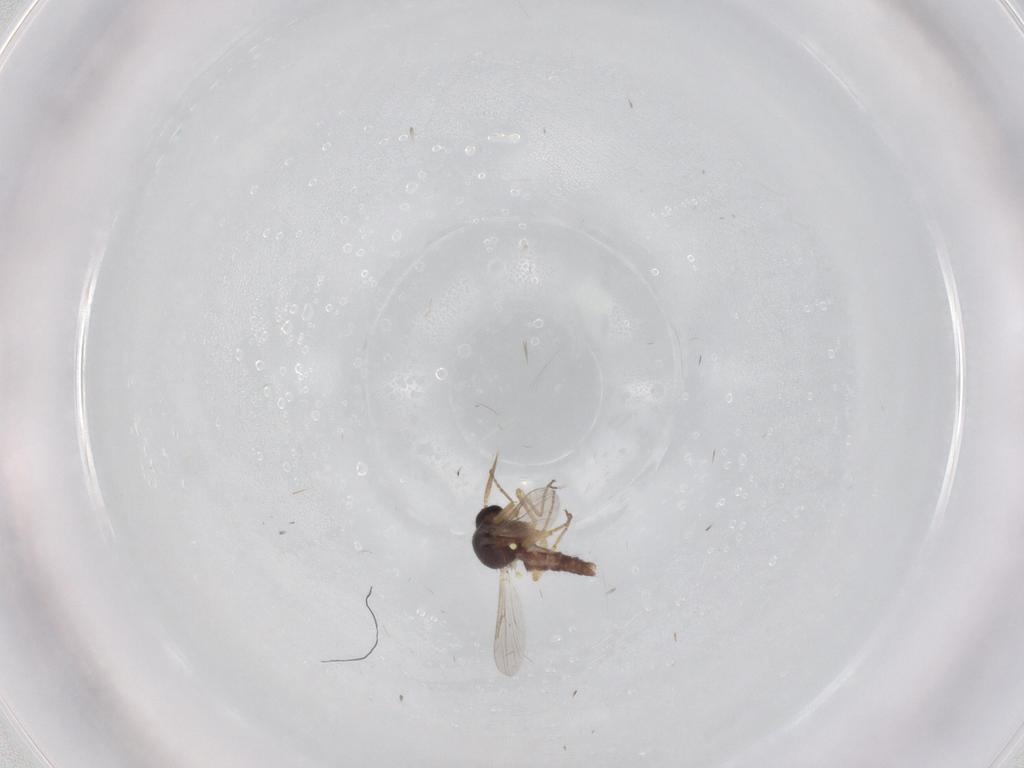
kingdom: Animalia
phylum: Arthropoda
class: Insecta
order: Diptera
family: Ceratopogonidae
